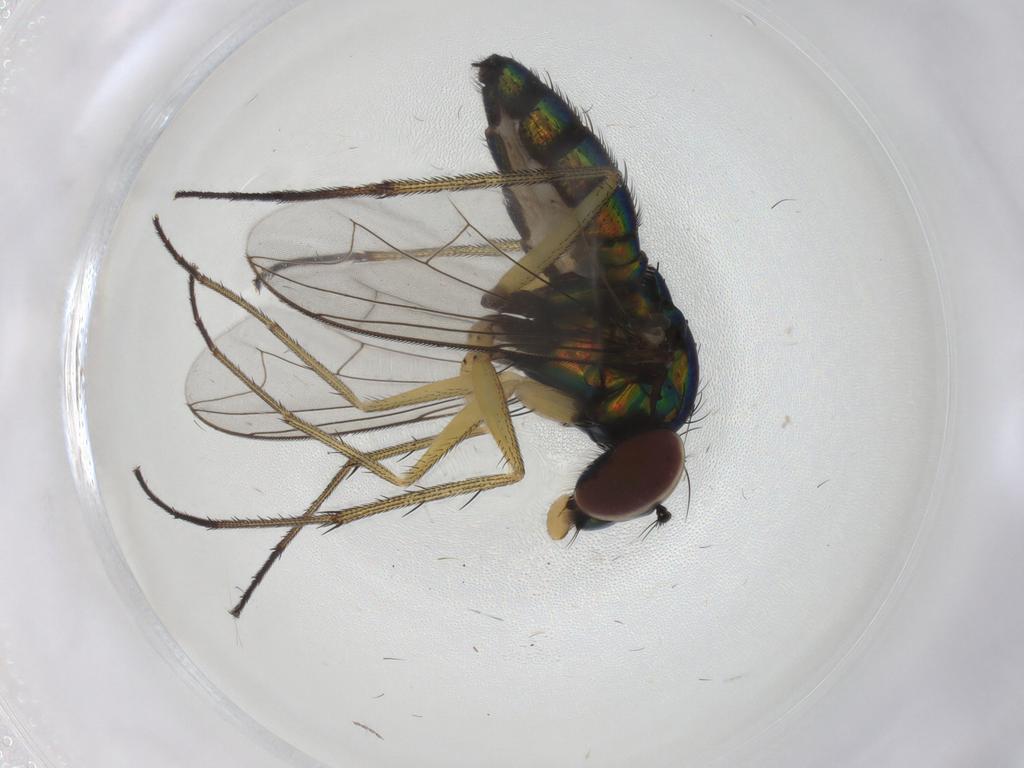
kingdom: Animalia
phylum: Arthropoda
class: Insecta
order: Diptera
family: Dolichopodidae
